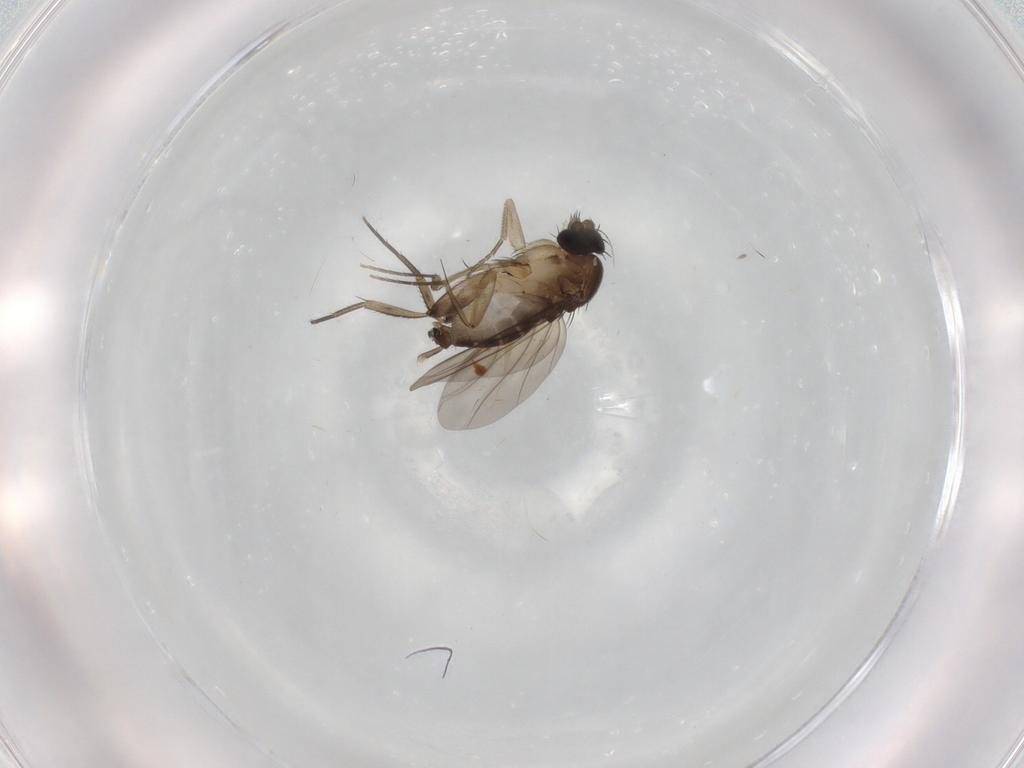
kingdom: Animalia
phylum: Arthropoda
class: Insecta
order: Diptera
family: Phoridae
